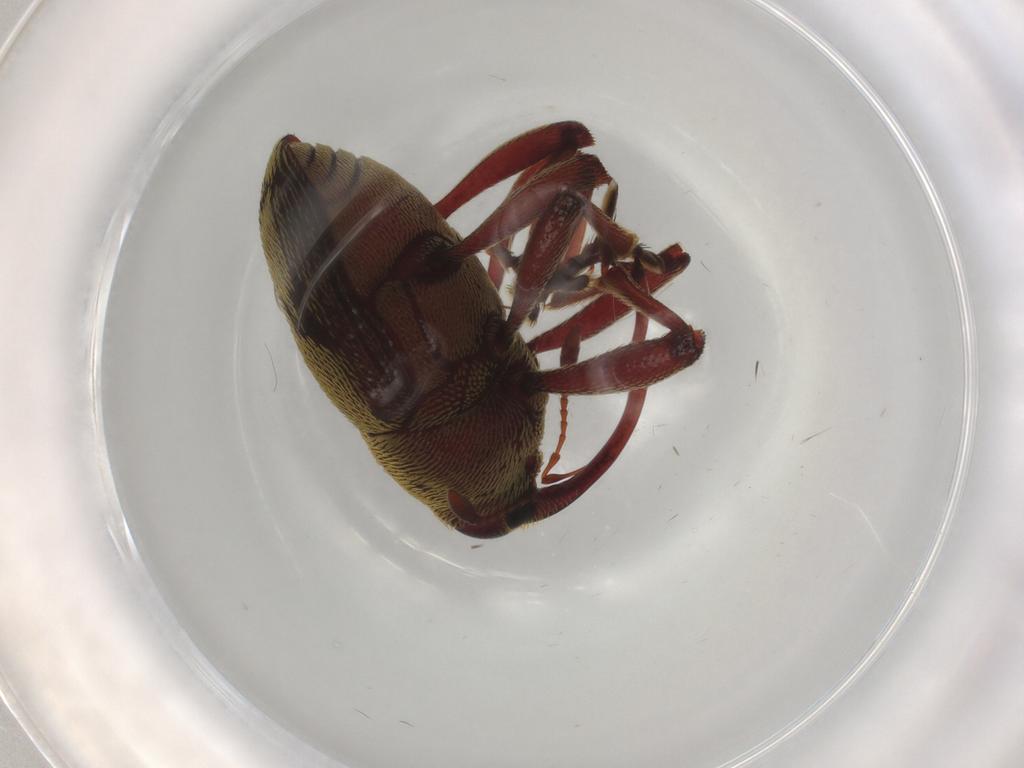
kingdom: Animalia
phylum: Arthropoda
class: Insecta
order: Coleoptera
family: Curculionidae
